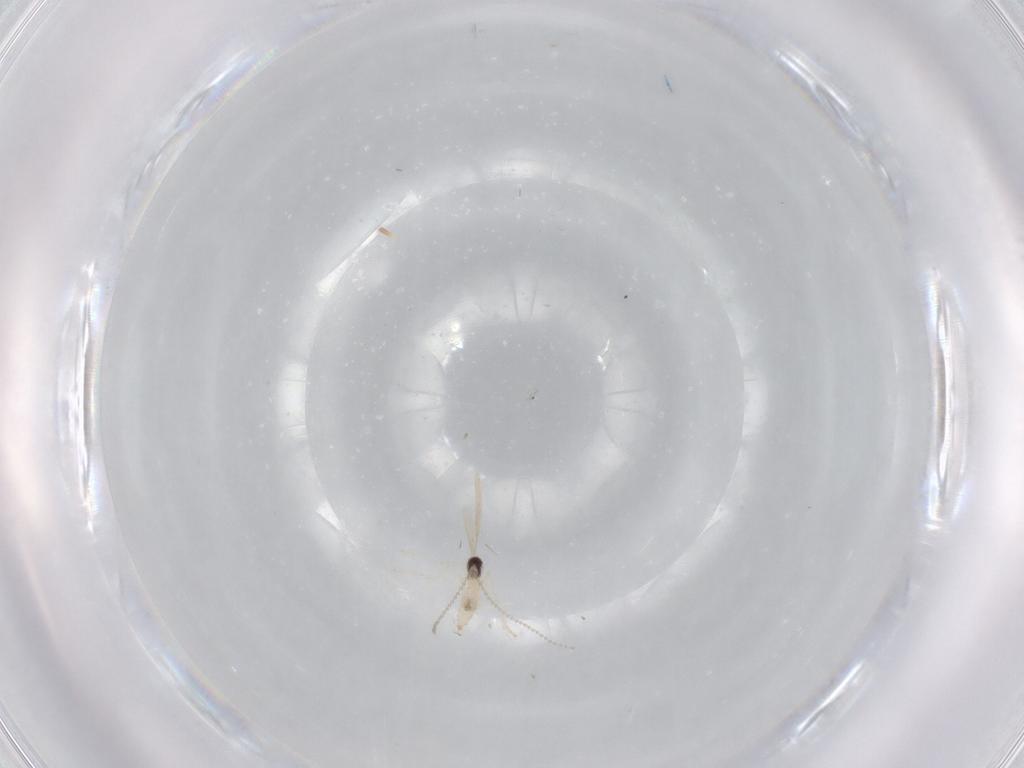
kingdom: Animalia
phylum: Arthropoda
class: Insecta
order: Diptera
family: Cecidomyiidae
